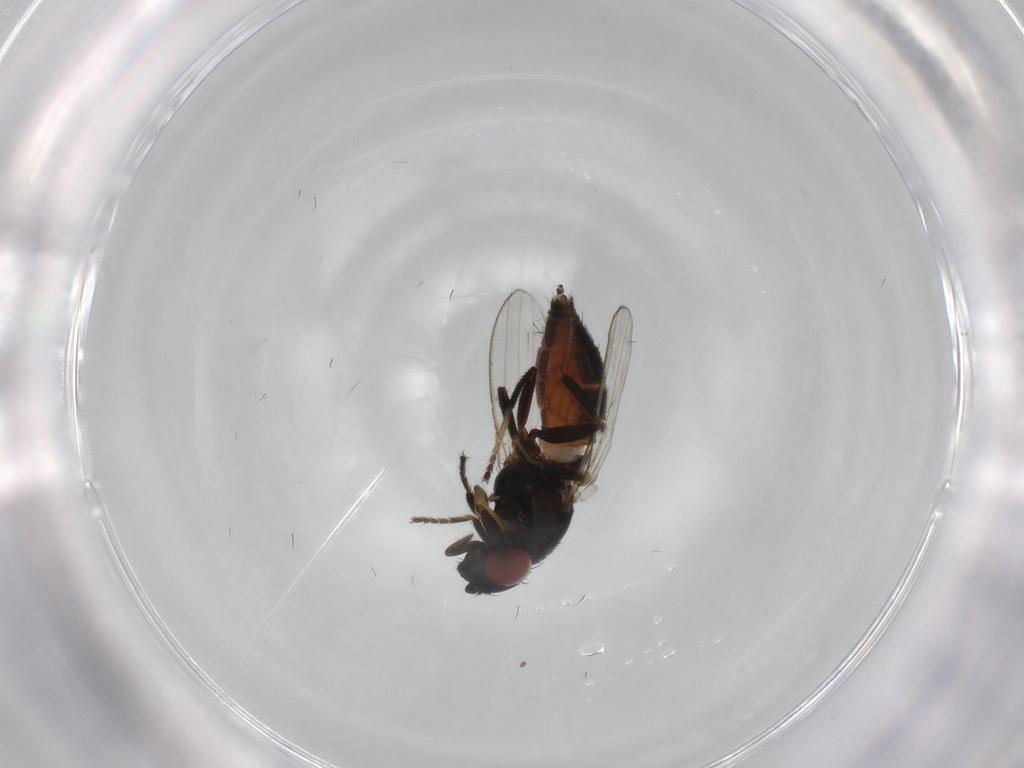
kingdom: Animalia
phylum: Arthropoda
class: Insecta
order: Diptera
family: Milichiidae
